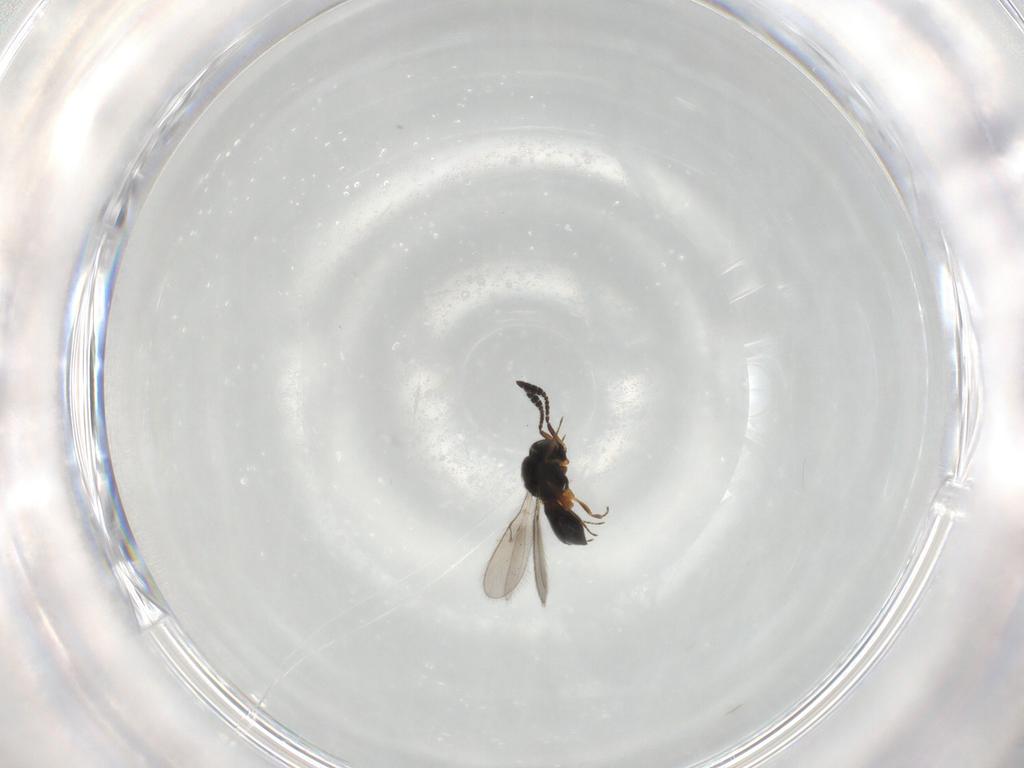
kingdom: Animalia
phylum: Arthropoda
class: Insecta
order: Hymenoptera
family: Scelionidae
